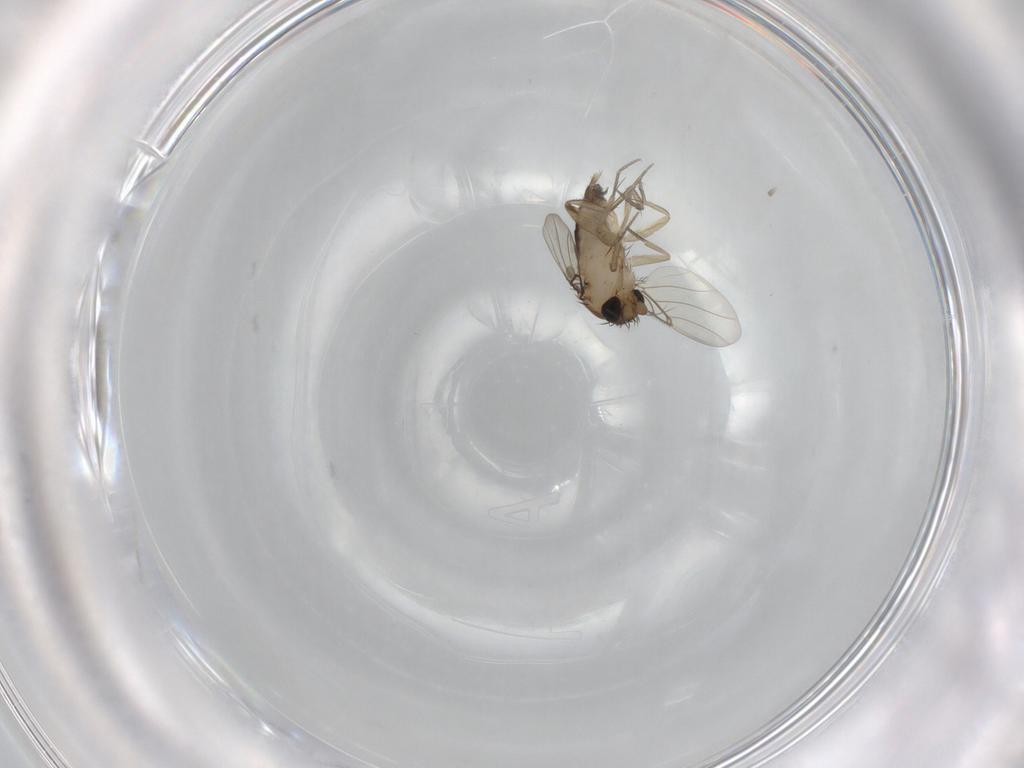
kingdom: Animalia
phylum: Arthropoda
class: Insecta
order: Diptera
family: Phoridae
